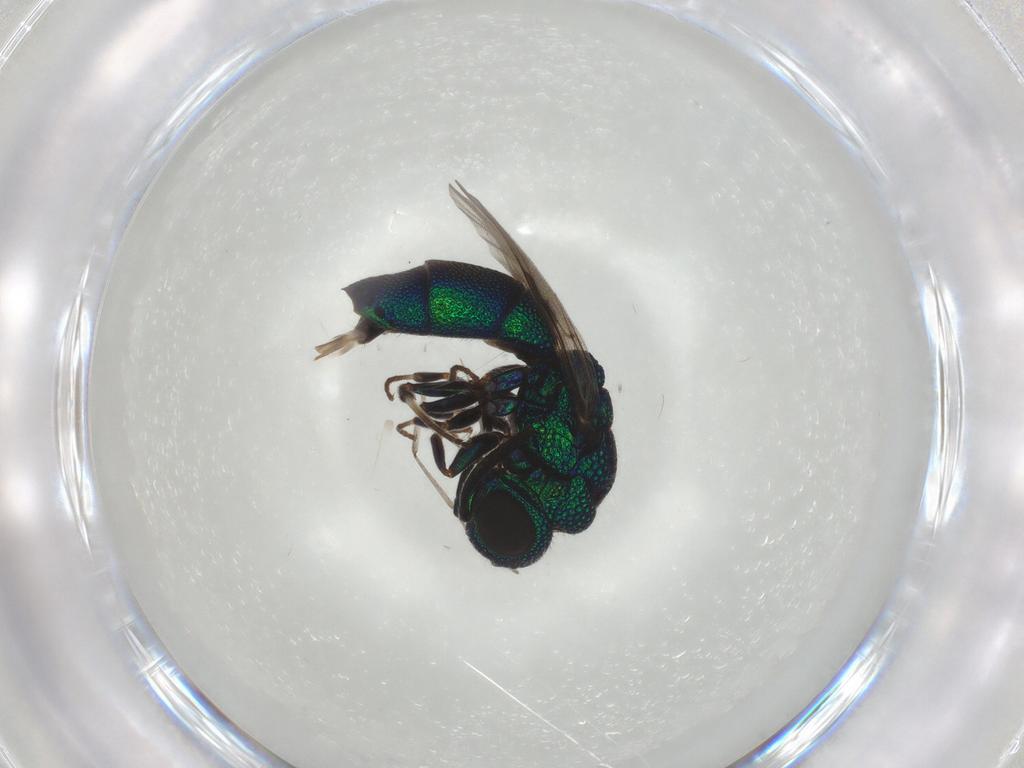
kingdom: Animalia
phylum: Arthropoda
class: Insecta
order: Hymenoptera
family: Chrysididae
